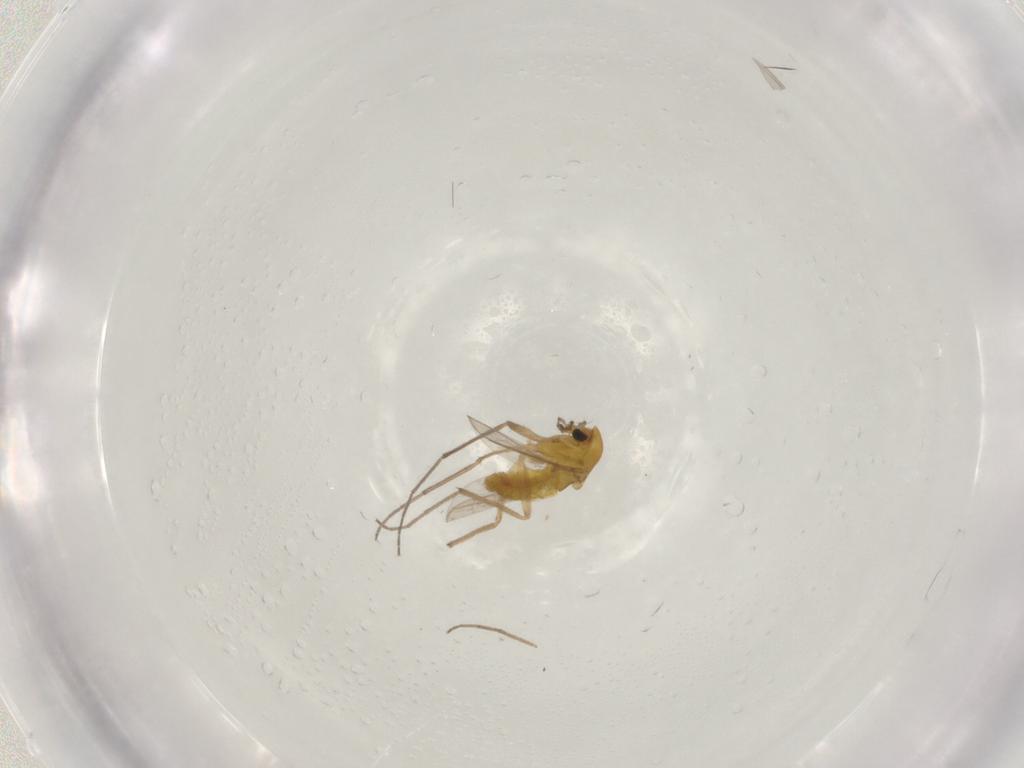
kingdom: Animalia
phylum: Arthropoda
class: Insecta
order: Diptera
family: Chironomidae
